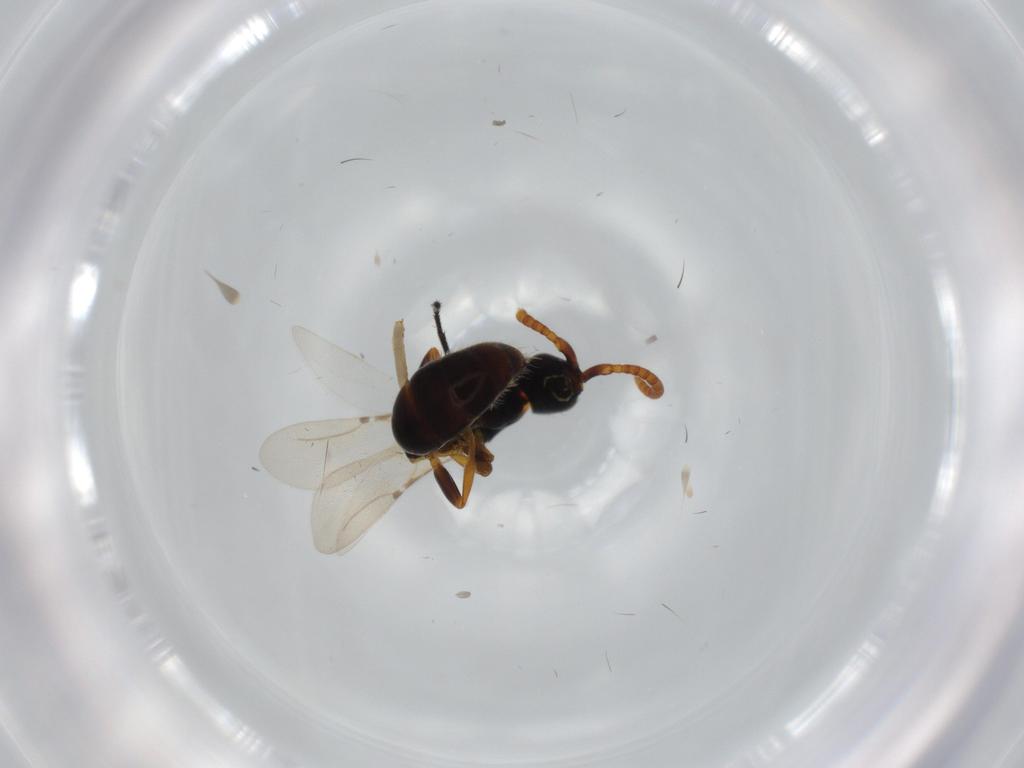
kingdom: Animalia
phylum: Arthropoda
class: Insecta
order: Hymenoptera
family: Bethylidae
